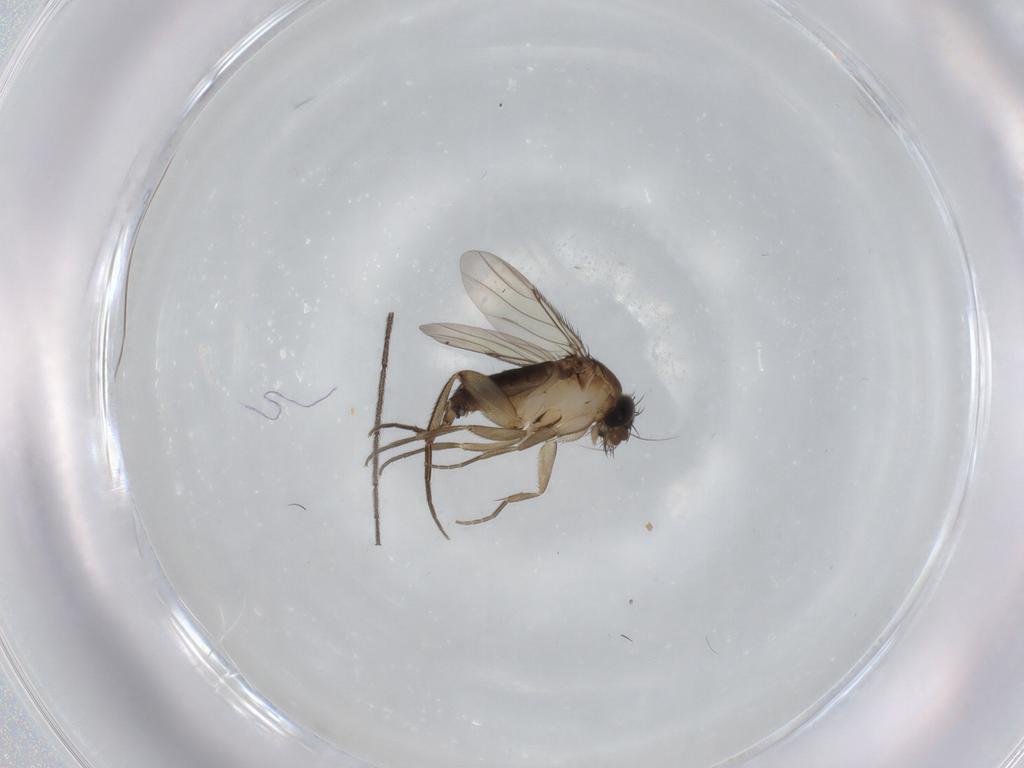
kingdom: Animalia
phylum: Arthropoda
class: Insecta
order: Diptera
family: Phoridae
